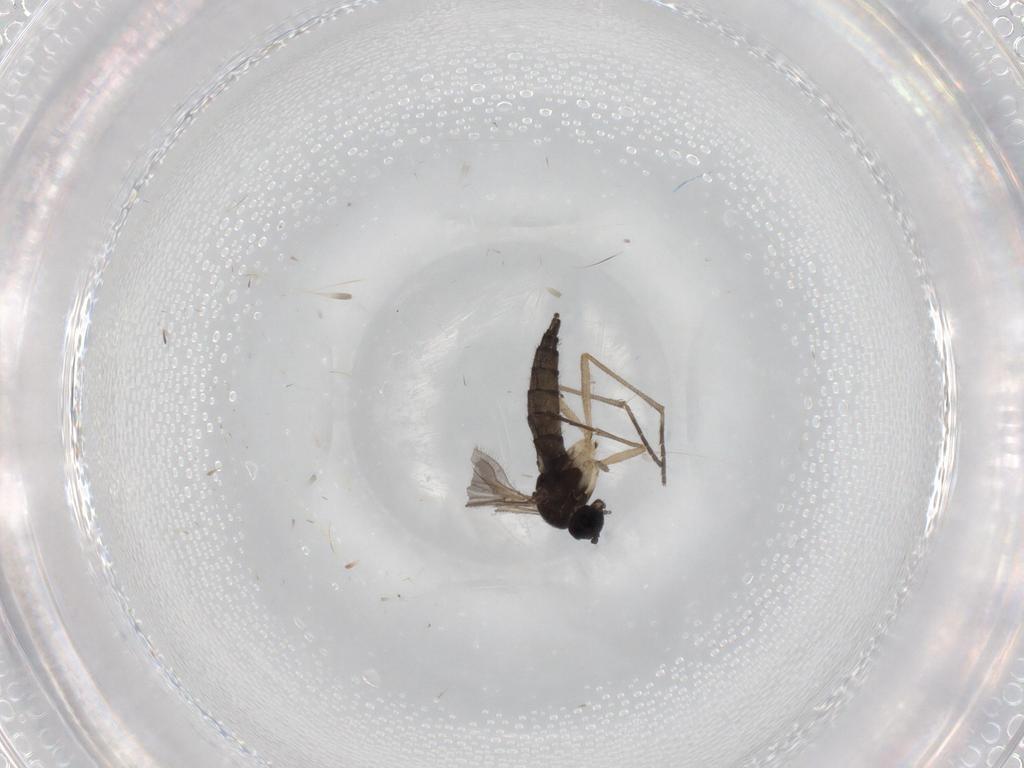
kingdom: Animalia
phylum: Arthropoda
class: Insecta
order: Diptera
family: Sciaridae
